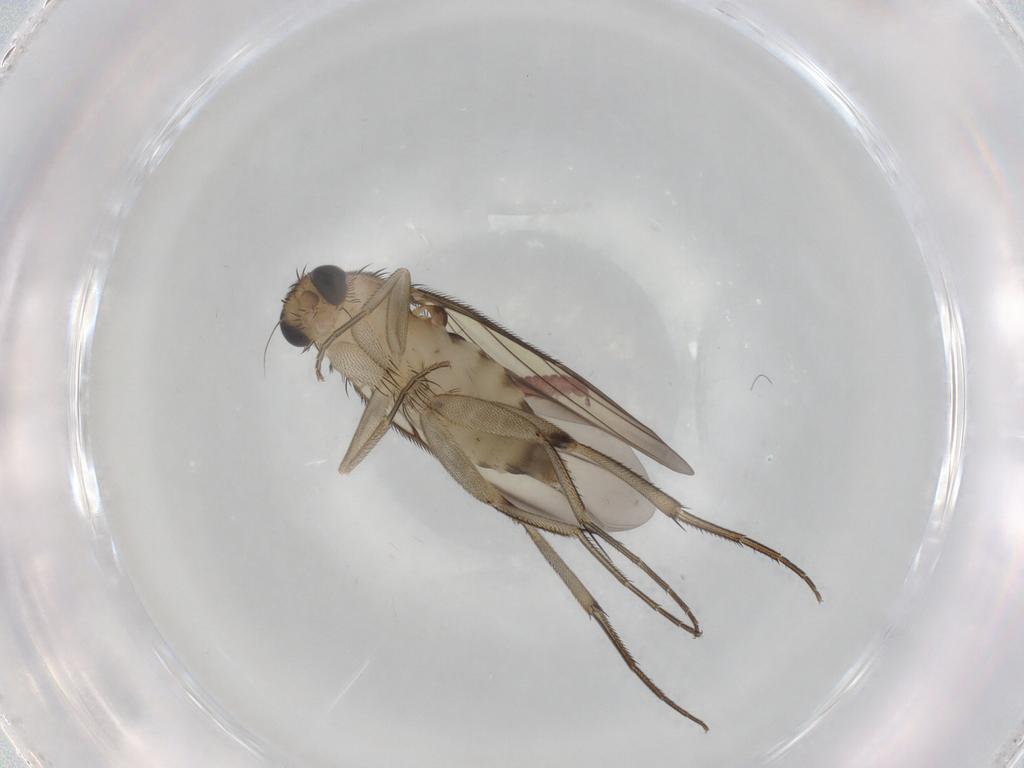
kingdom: Animalia
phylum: Arthropoda
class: Insecta
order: Diptera
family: Phoridae
